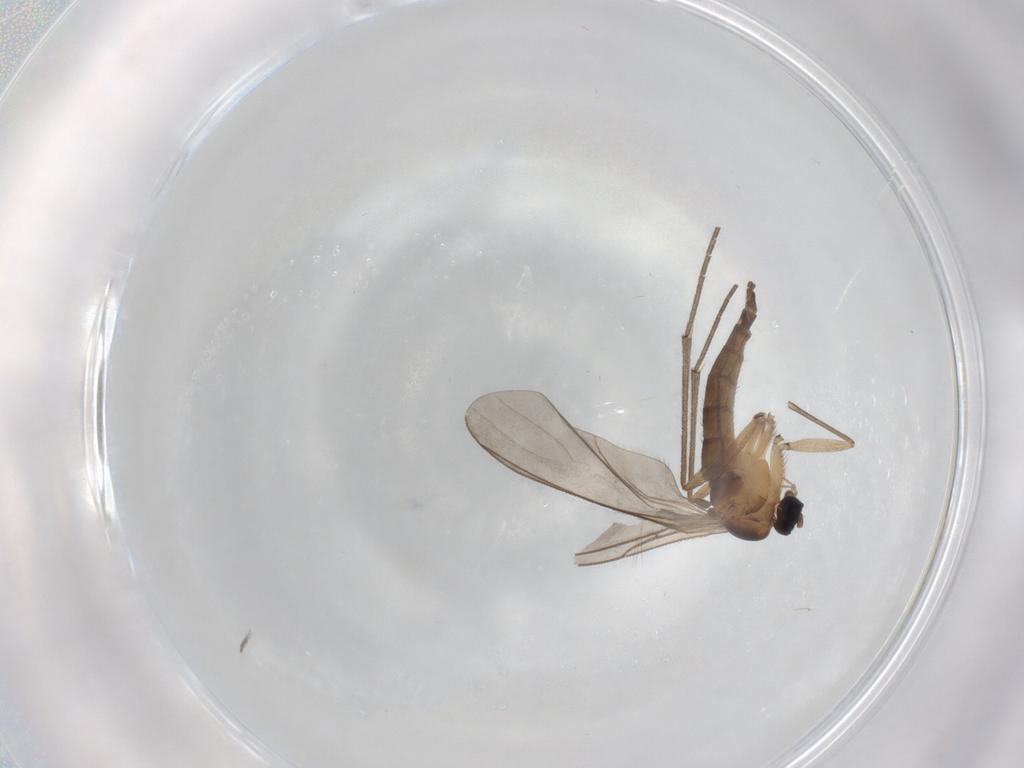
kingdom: Animalia
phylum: Arthropoda
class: Insecta
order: Diptera
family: Sciaridae
